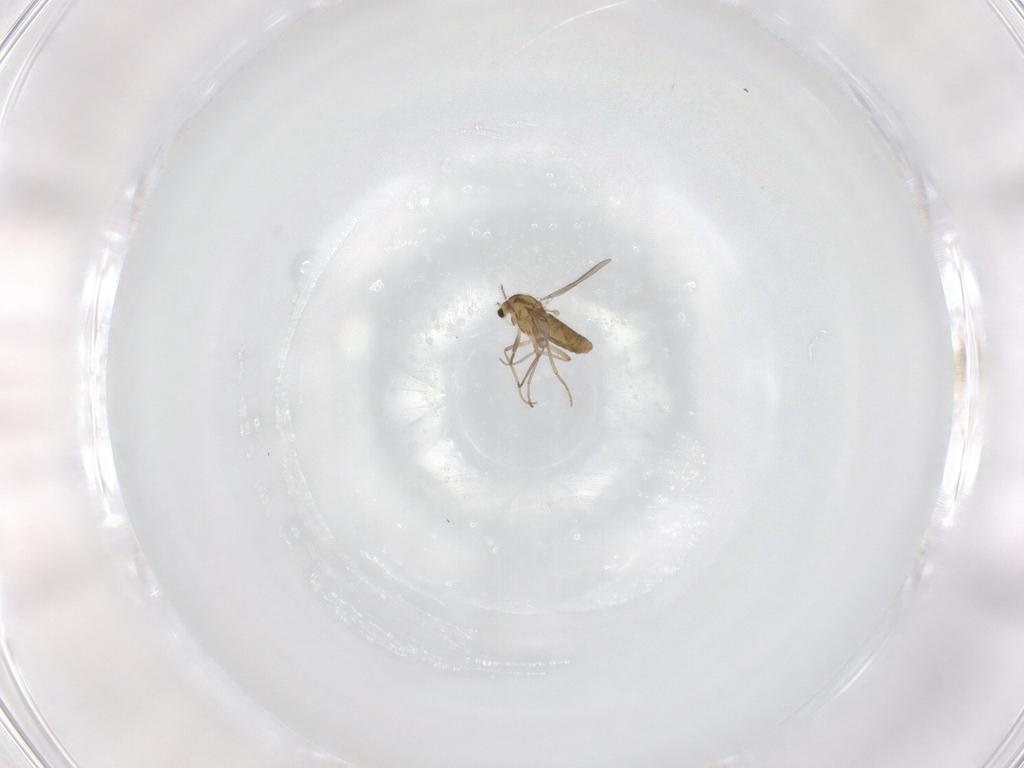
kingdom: Animalia
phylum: Arthropoda
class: Insecta
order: Diptera
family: Chironomidae
